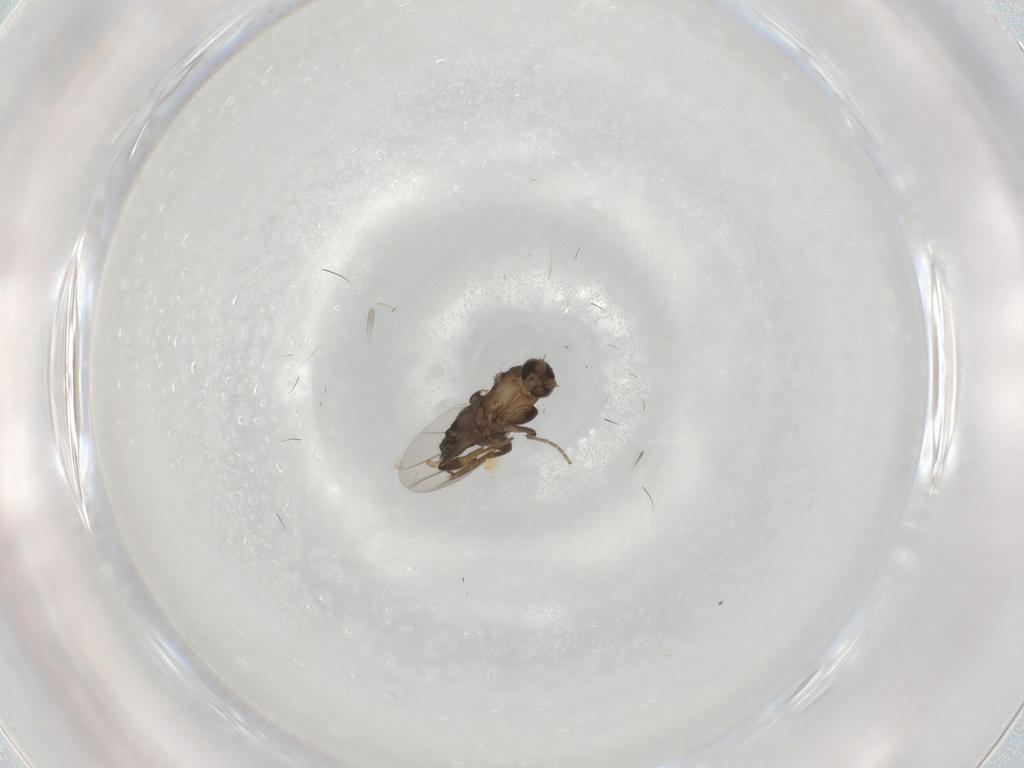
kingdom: Animalia
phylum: Arthropoda
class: Insecta
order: Diptera
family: Phoridae
